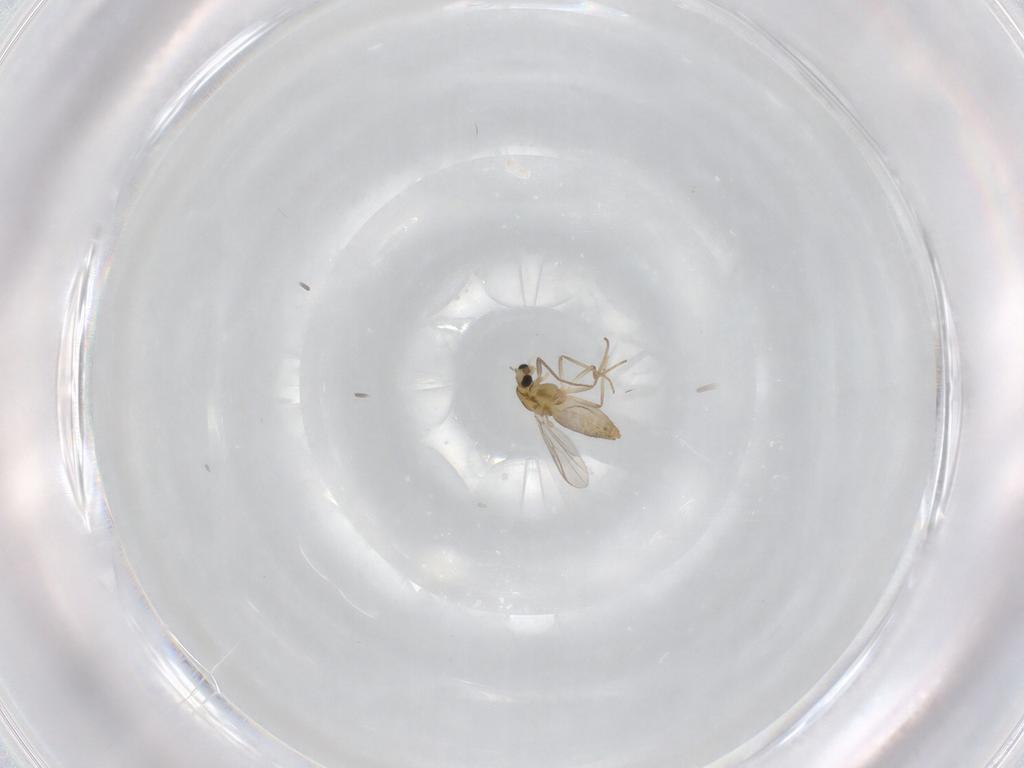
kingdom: Animalia
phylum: Arthropoda
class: Insecta
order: Diptera
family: Chironomidae
